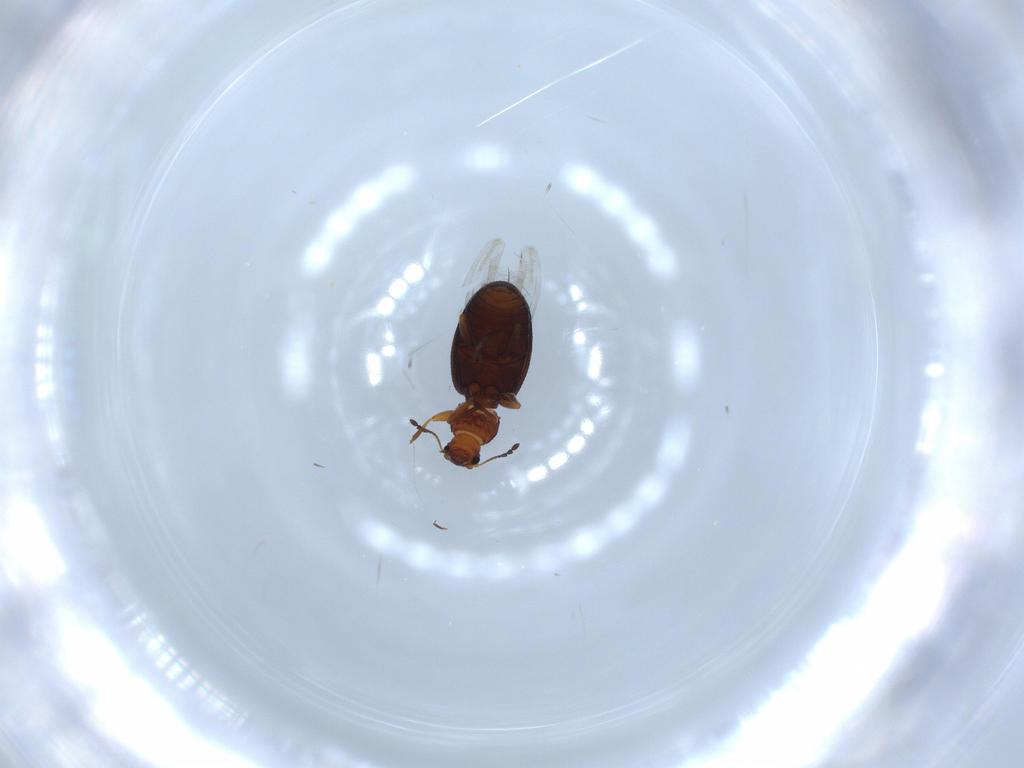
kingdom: Animalia
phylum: Arthropoda
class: Insecta
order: Coleoptera
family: Latridiidae
